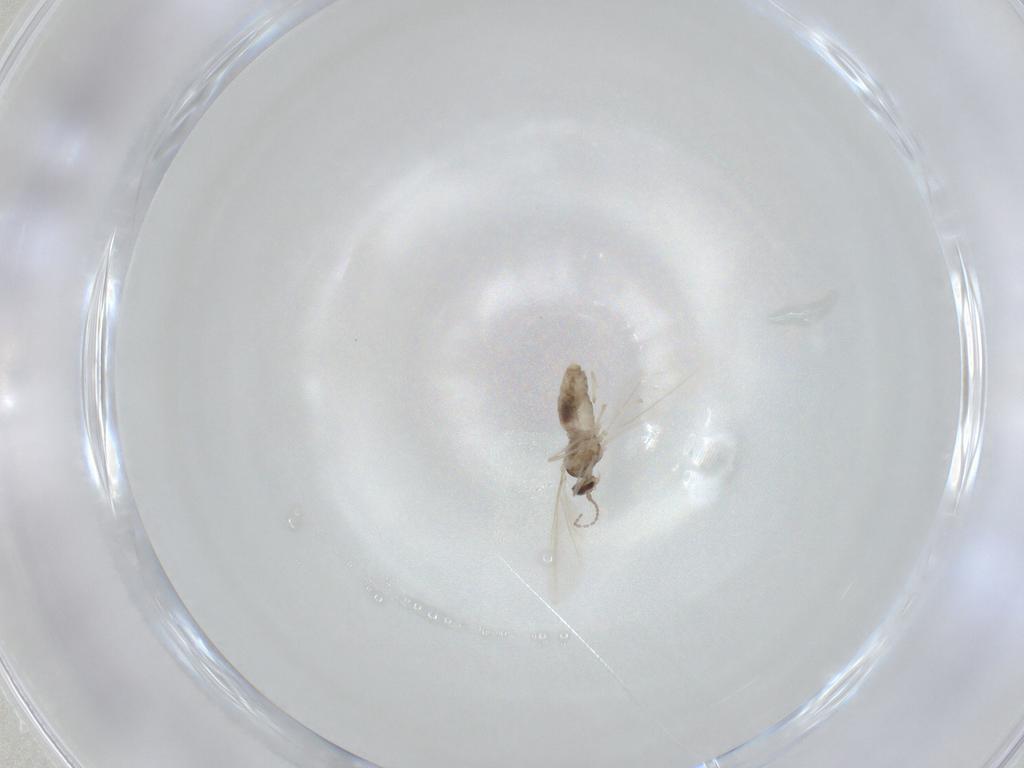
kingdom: Animalia
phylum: Arthropoda
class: Insecta
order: Diptera
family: Cecidomyiidae
